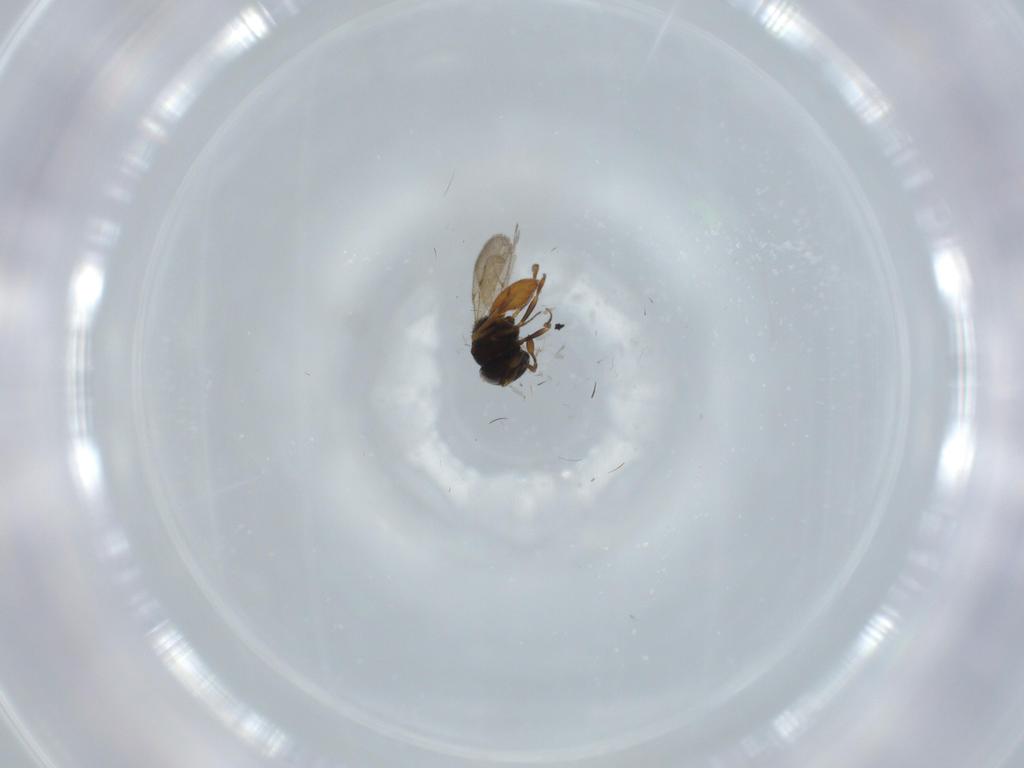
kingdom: Animalia
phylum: Arthropoda
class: Insecta
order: Hymenoptera
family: Scelionidae
